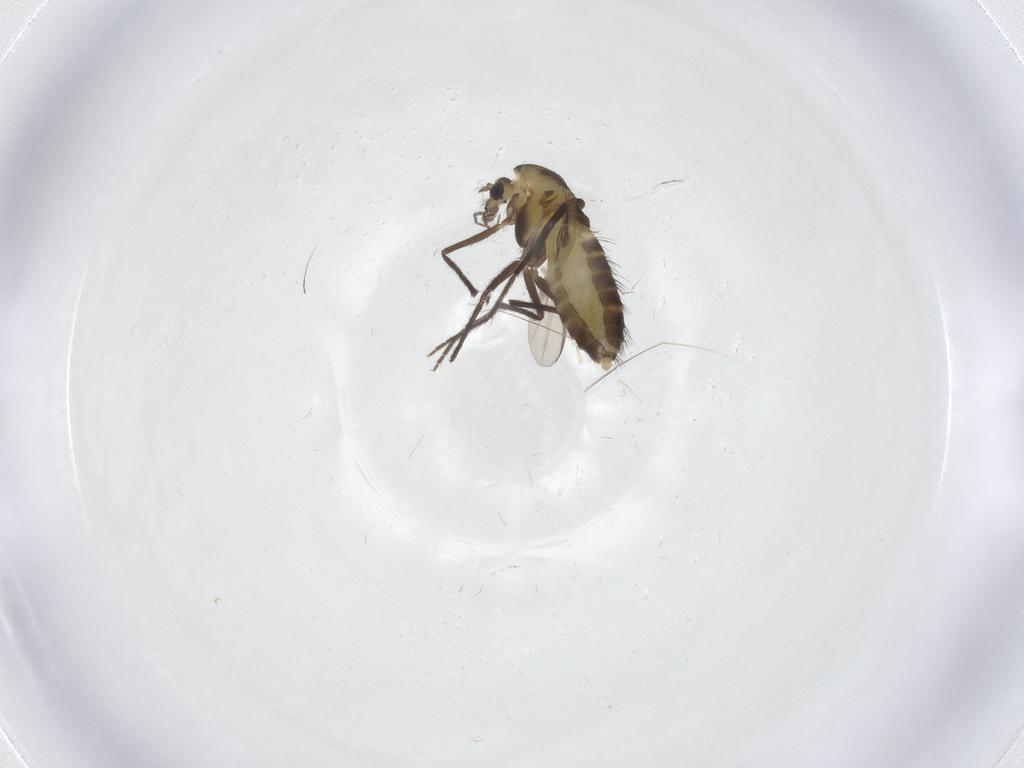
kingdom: Animalia
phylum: Arthropoda
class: Insecta
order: Diptera
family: Chironomidae
